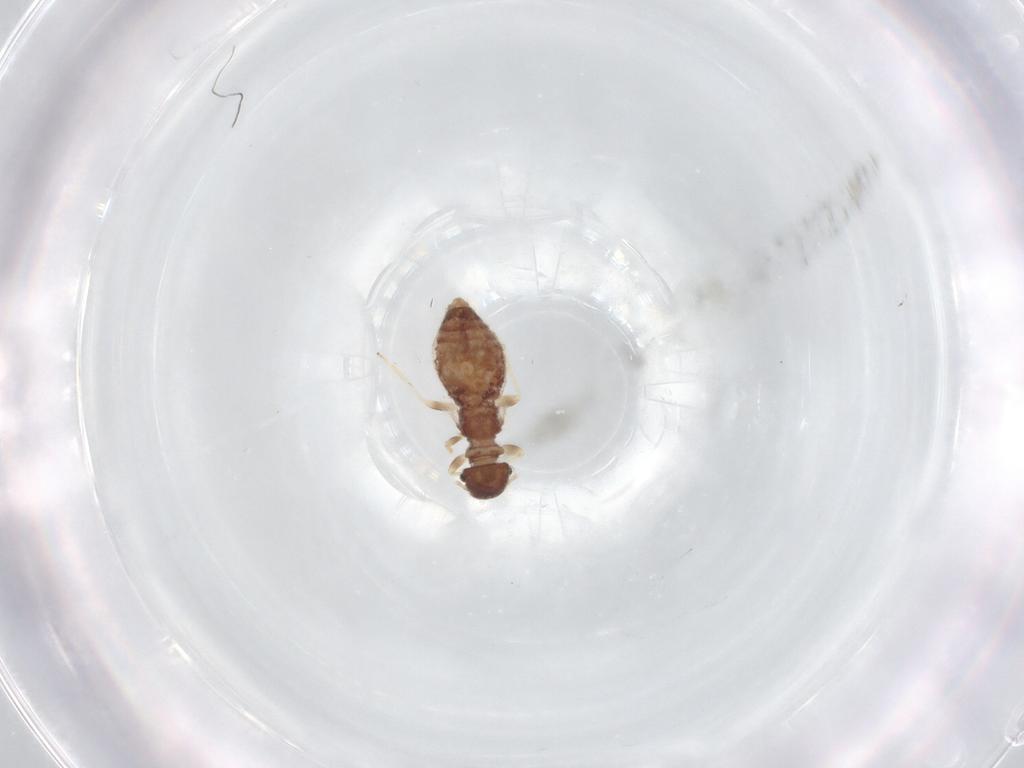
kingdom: Animalia
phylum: Arthropoda
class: Insecta
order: Psocodea
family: Archipsocidae
